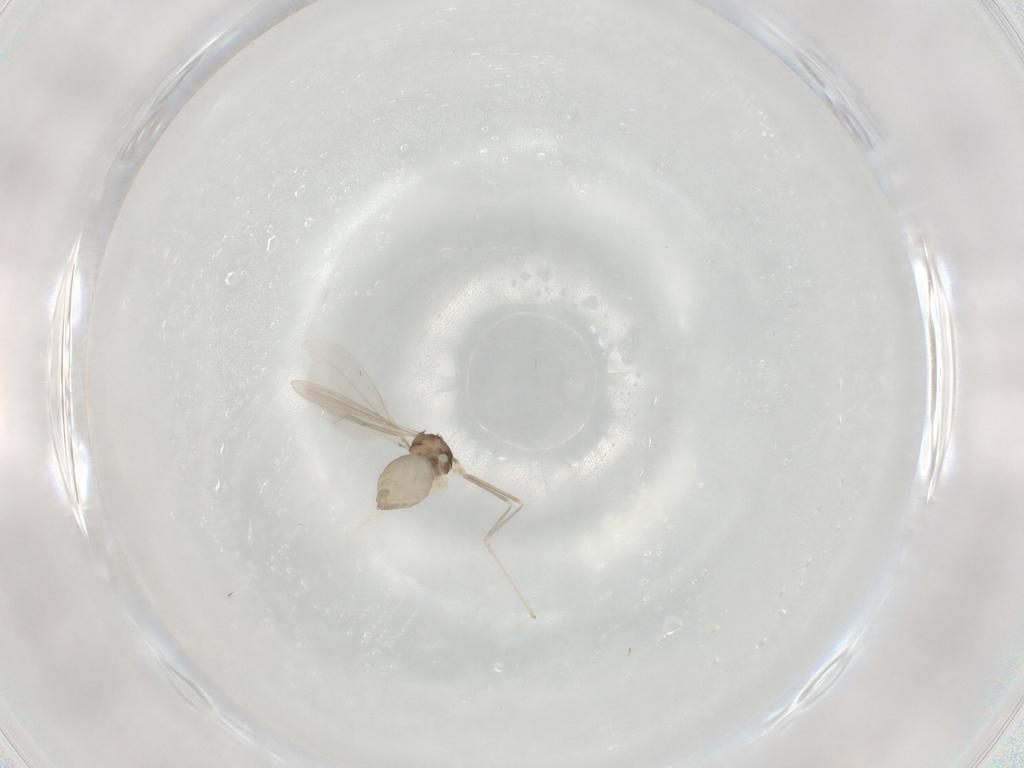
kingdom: Animalia
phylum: Arthropoda
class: Insecta
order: Diptera
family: Cecidomyiidae
